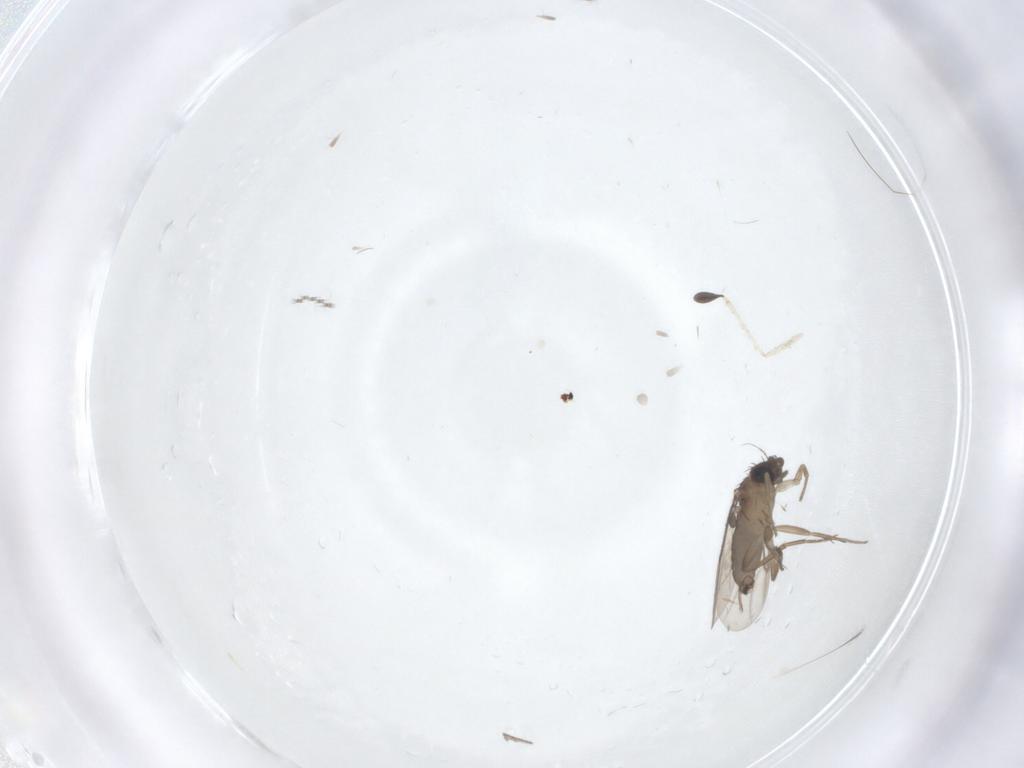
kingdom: Animalia
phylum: Arthropoda
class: Insecta
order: Diptera
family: Phoridae
